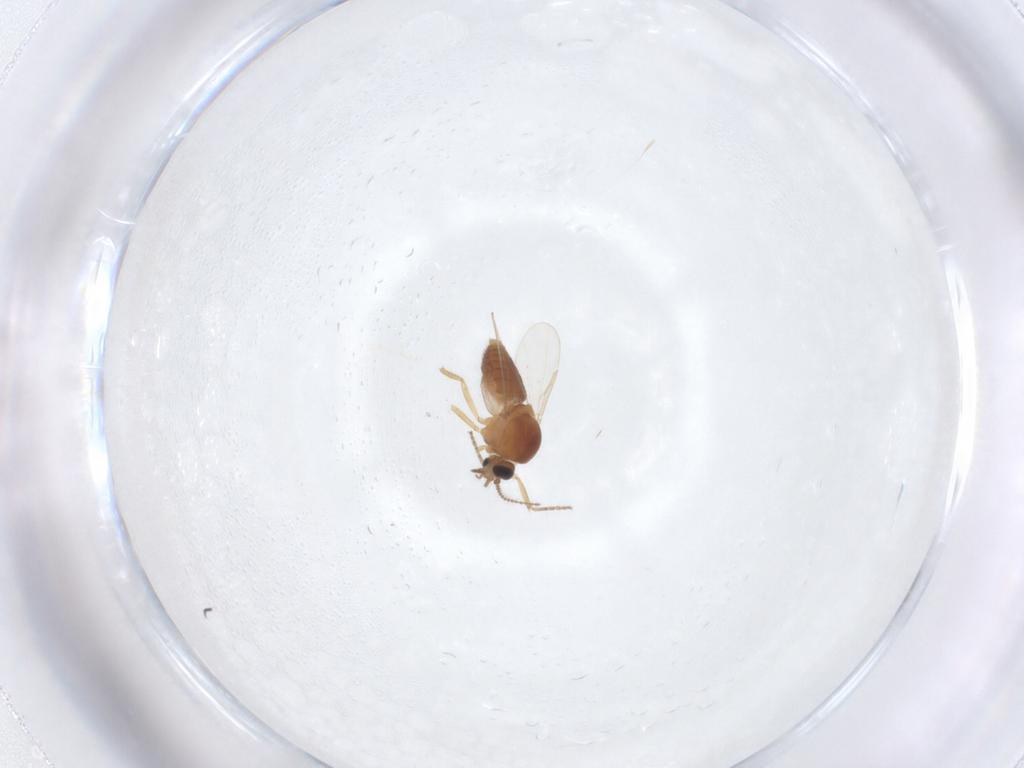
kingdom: Animalia
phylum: Arthropoda
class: Insecta
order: Diptera
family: Ceratopogonidae
